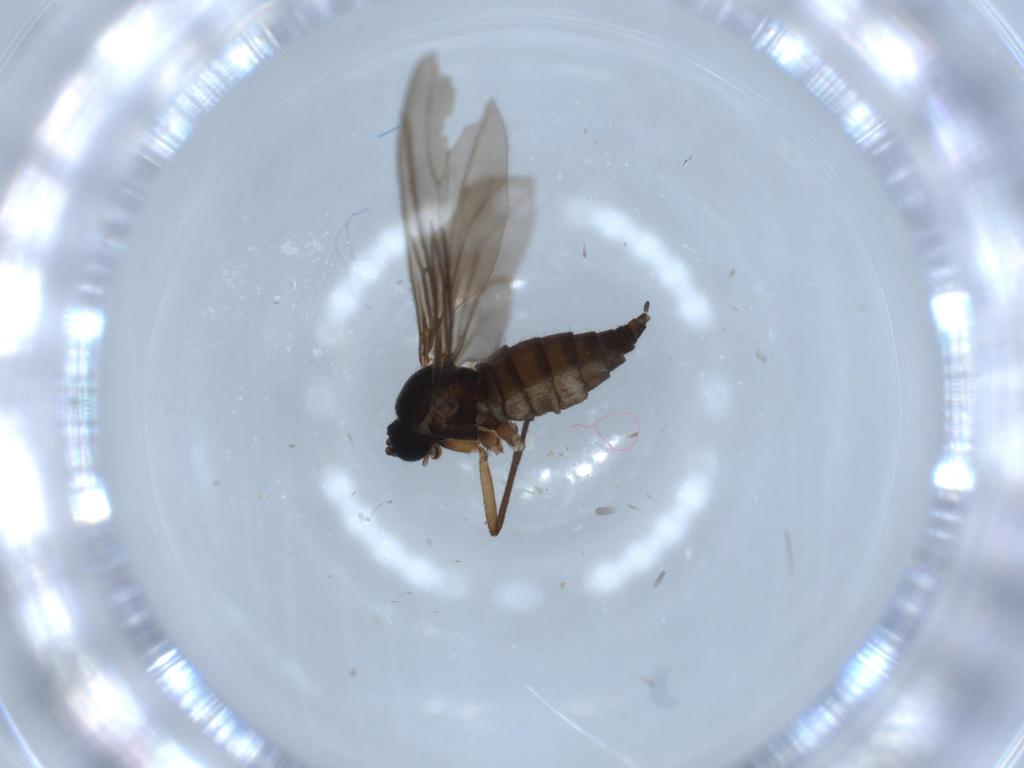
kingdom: Animalia
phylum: Arthropoda
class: Insecta
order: Diptera
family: Sciaridae
